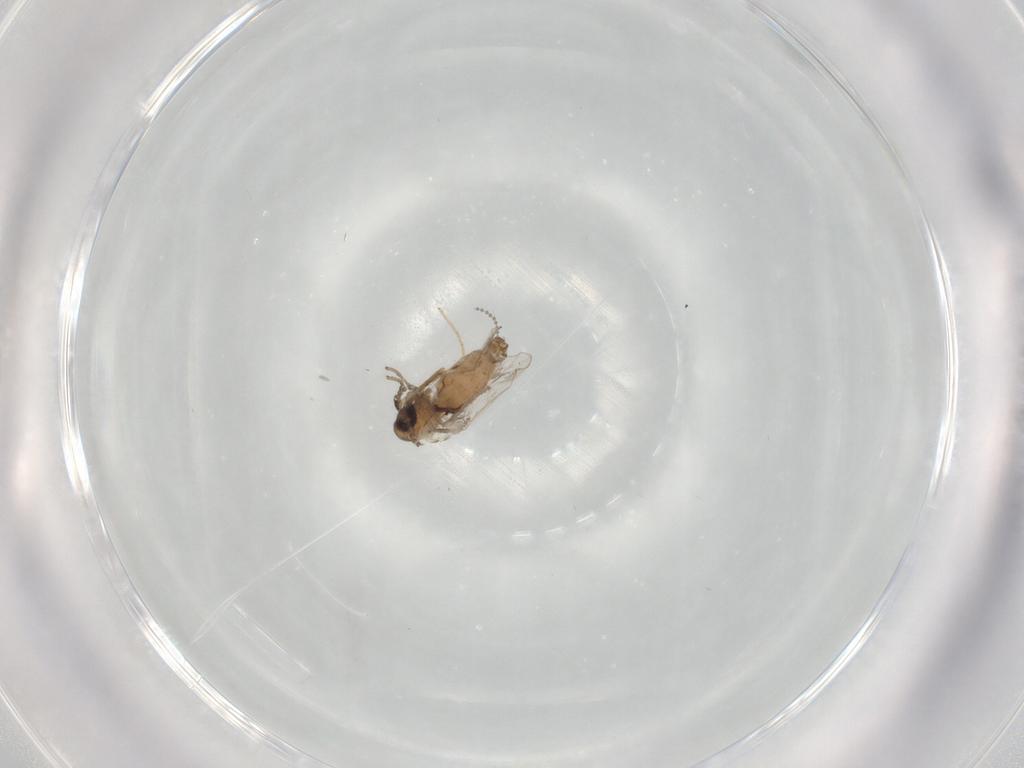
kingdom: Animalia
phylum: Arthropoda
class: Insecta
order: Diptera
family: Psychodidae
